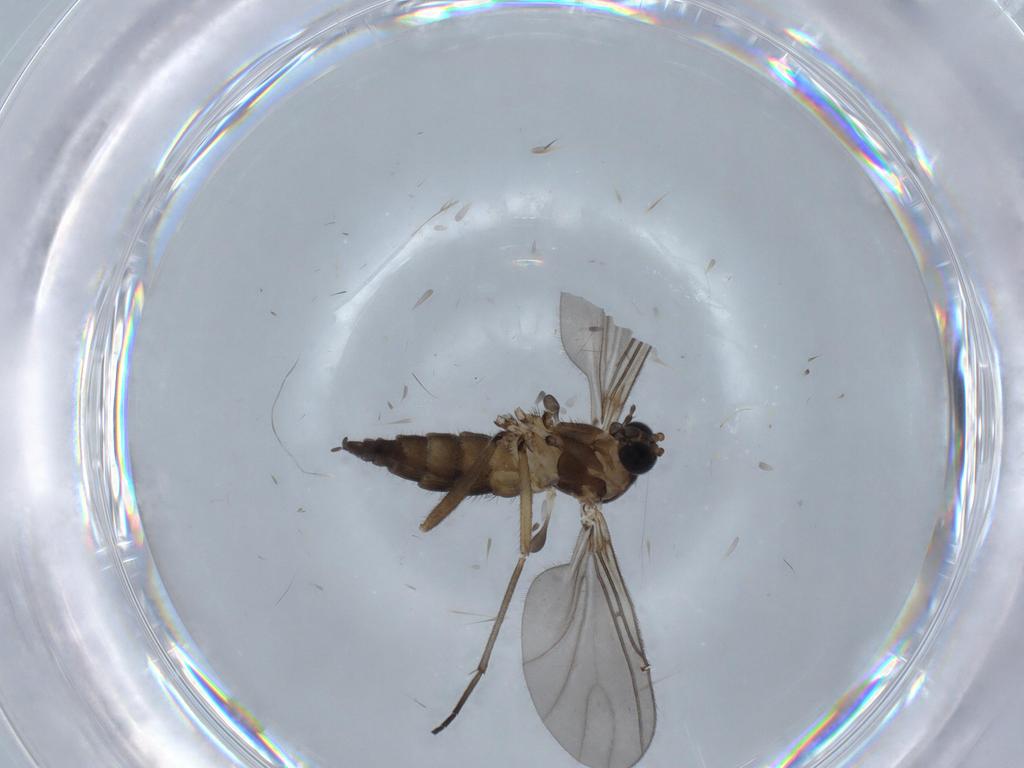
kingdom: Animalia
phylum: Arthropoda
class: Insecta
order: Diptera
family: Sciaridae
